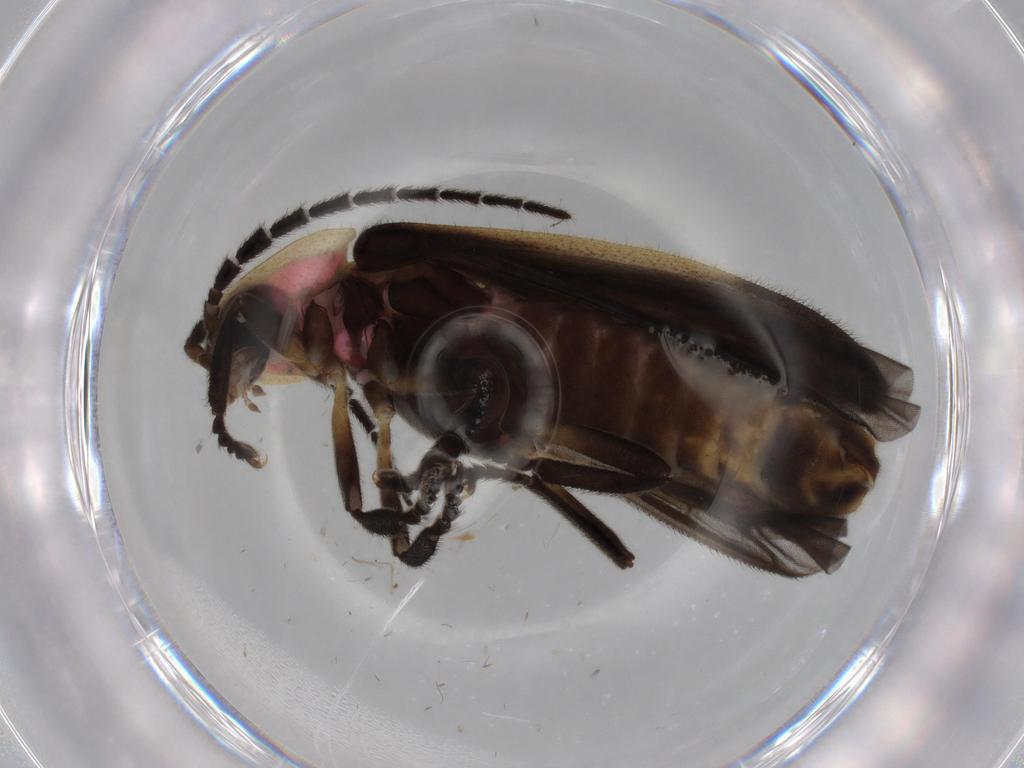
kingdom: Animalia
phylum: Arthropoda
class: Insecta
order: Coleoptera
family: Lampyridae
